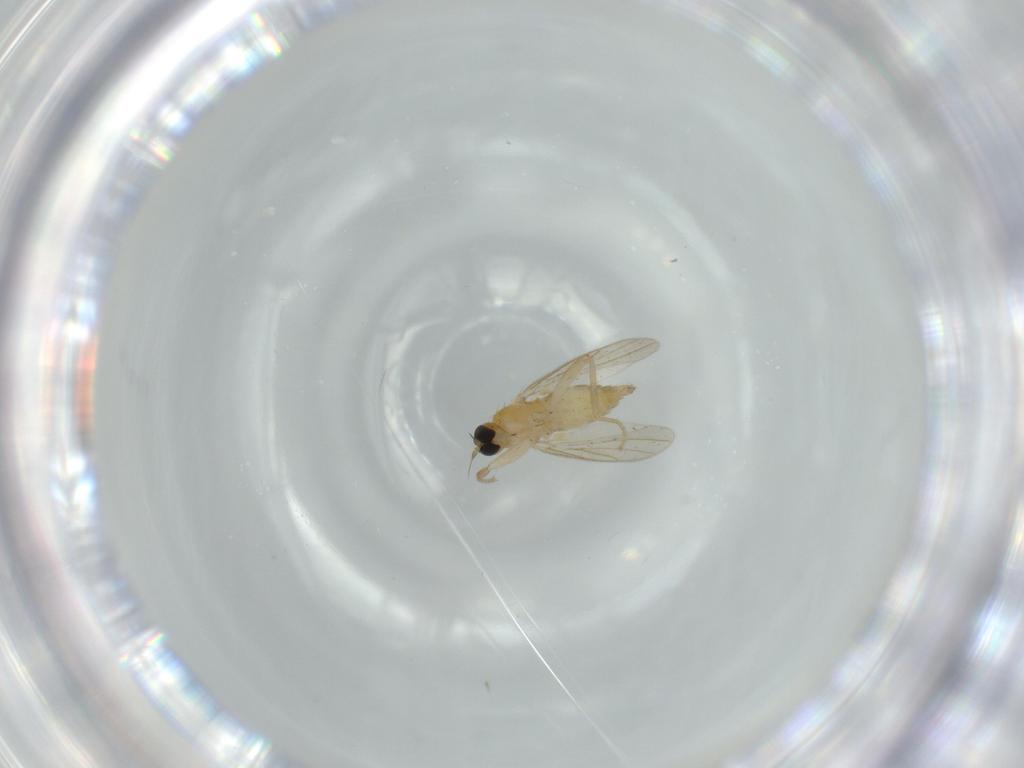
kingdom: Animalia
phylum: Arthropoda
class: Insecta
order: Diptera
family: Hybotidae
